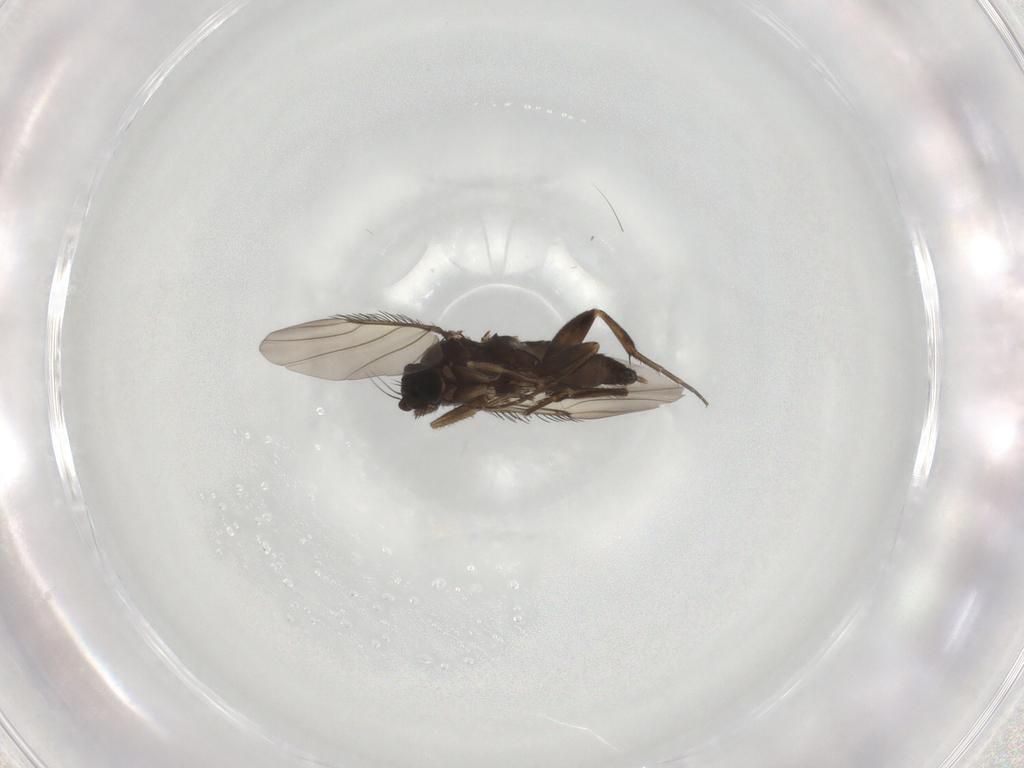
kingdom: Animalia
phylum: Arthropoda
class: Insecta
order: Diptera
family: Phoridae
